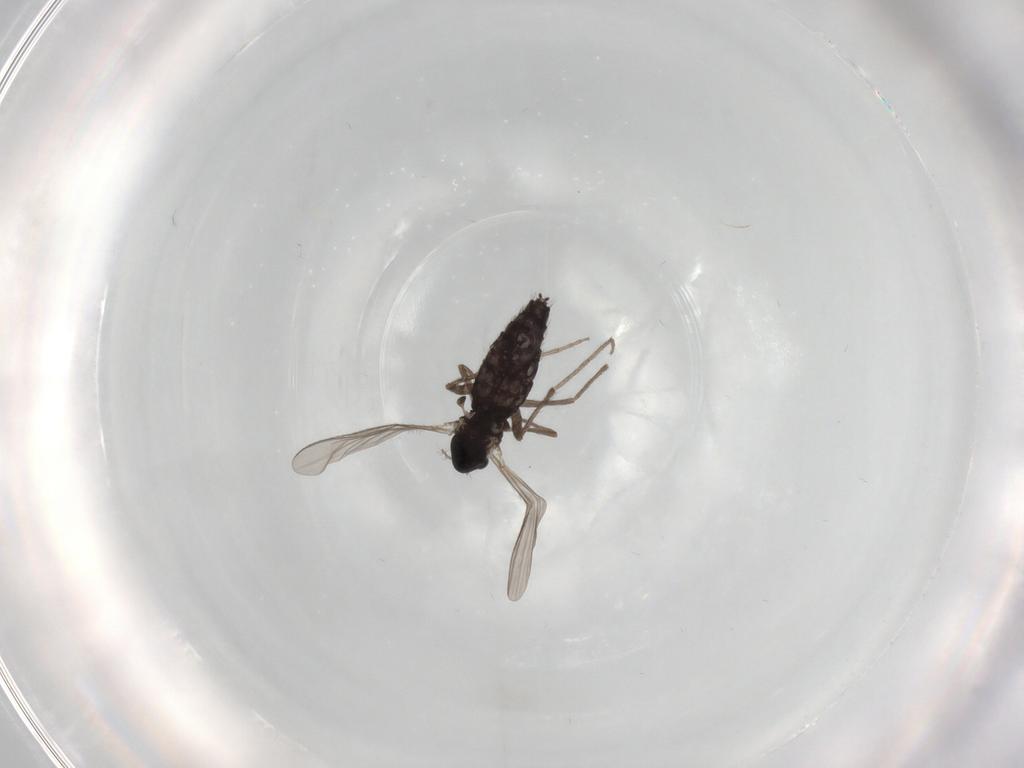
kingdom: Animalia
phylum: Arthropoda
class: Insecta
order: Diptera
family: Chironomidae
